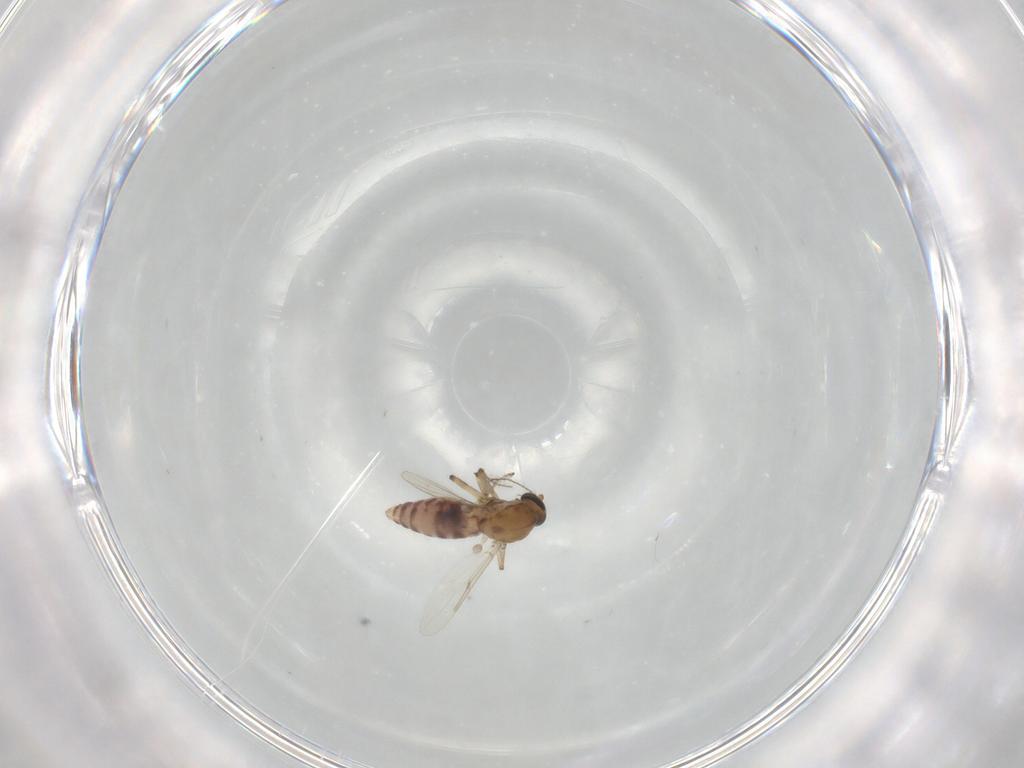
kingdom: Animalia
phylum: Arthropoda
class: Insecta
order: Diptera
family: Ceratopogonidae
